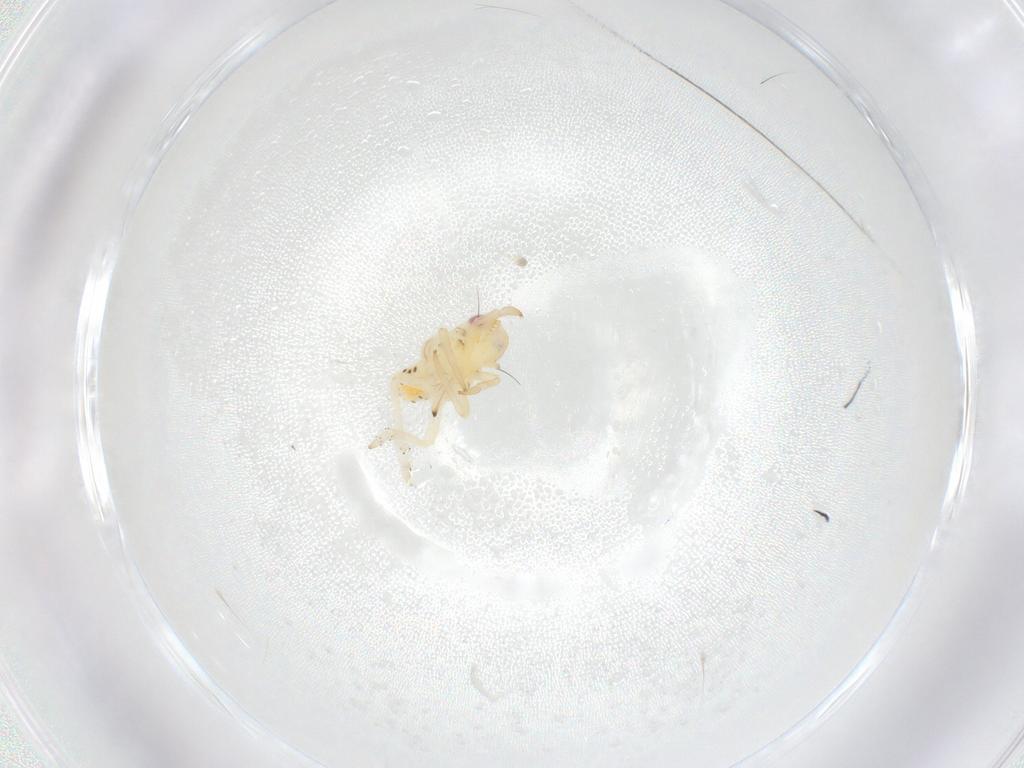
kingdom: Animalia
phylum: Arthropoda
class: Insecta
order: Hemiptera
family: Tropiduchidae
